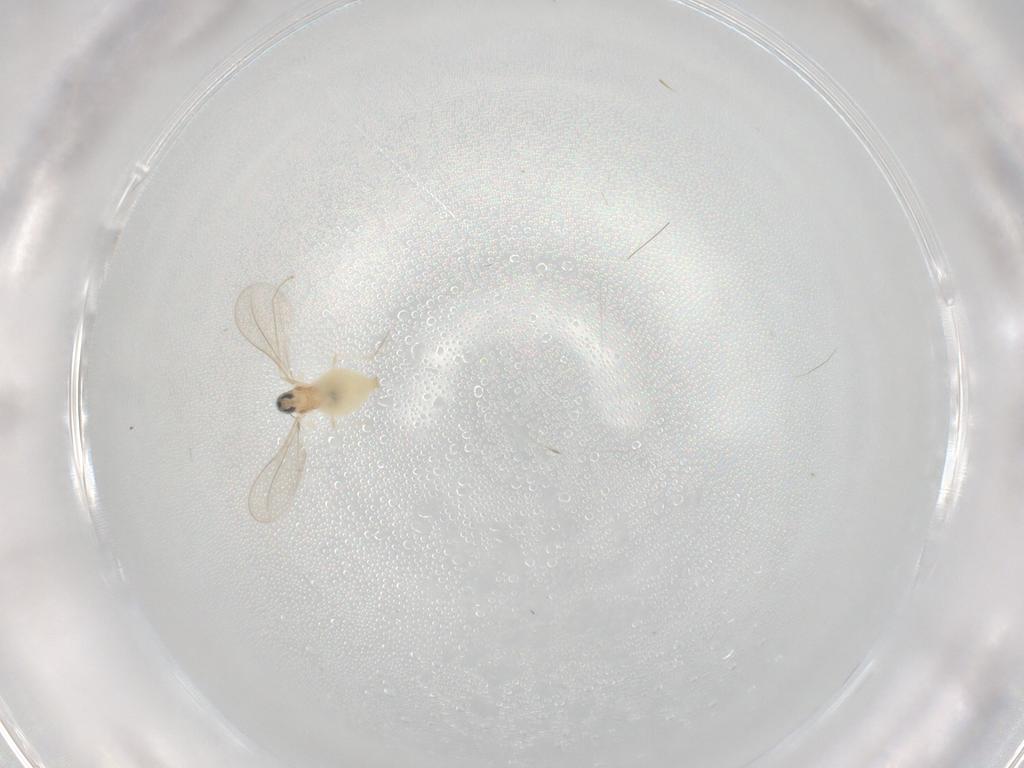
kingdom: Animalia
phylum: Arthropoda
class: Insecta
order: Diptera
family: Cecidomyiidae
